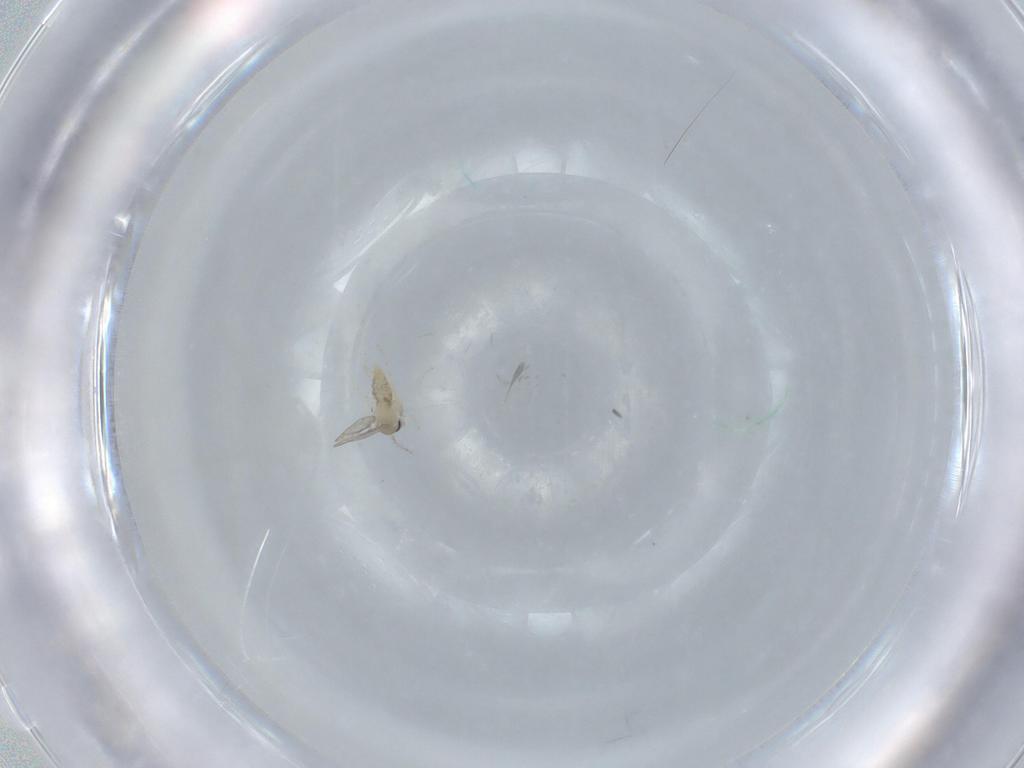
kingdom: Animalia
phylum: Arthropoda
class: Insecta
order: Diptera
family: Cecidomyiidae
